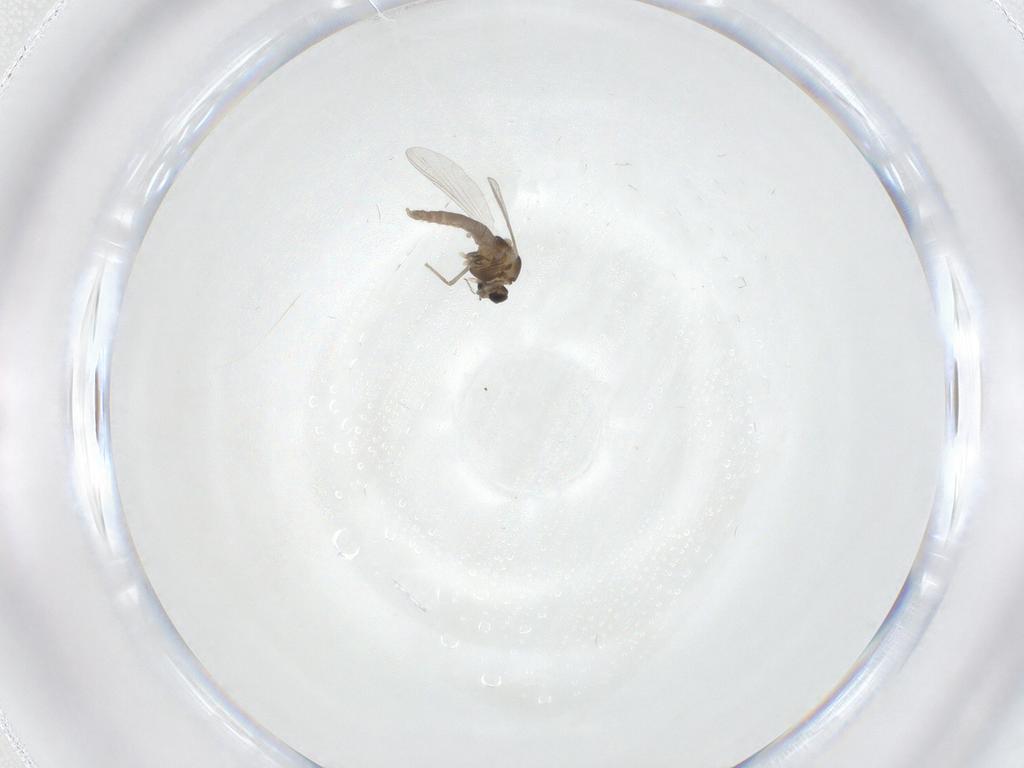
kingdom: Animalia
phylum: Arthropoda
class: Insecta
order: Diptera
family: Chironomidae
